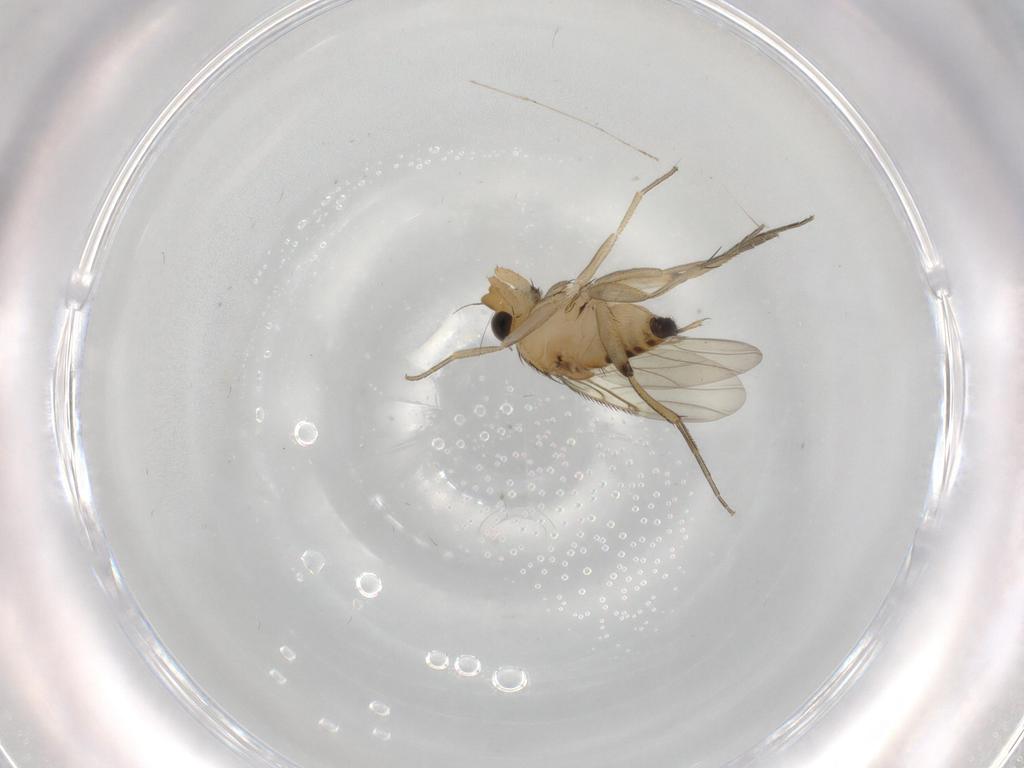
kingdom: Animalia
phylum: Arthropoda
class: Insecta
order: Diptera
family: Phoridae
